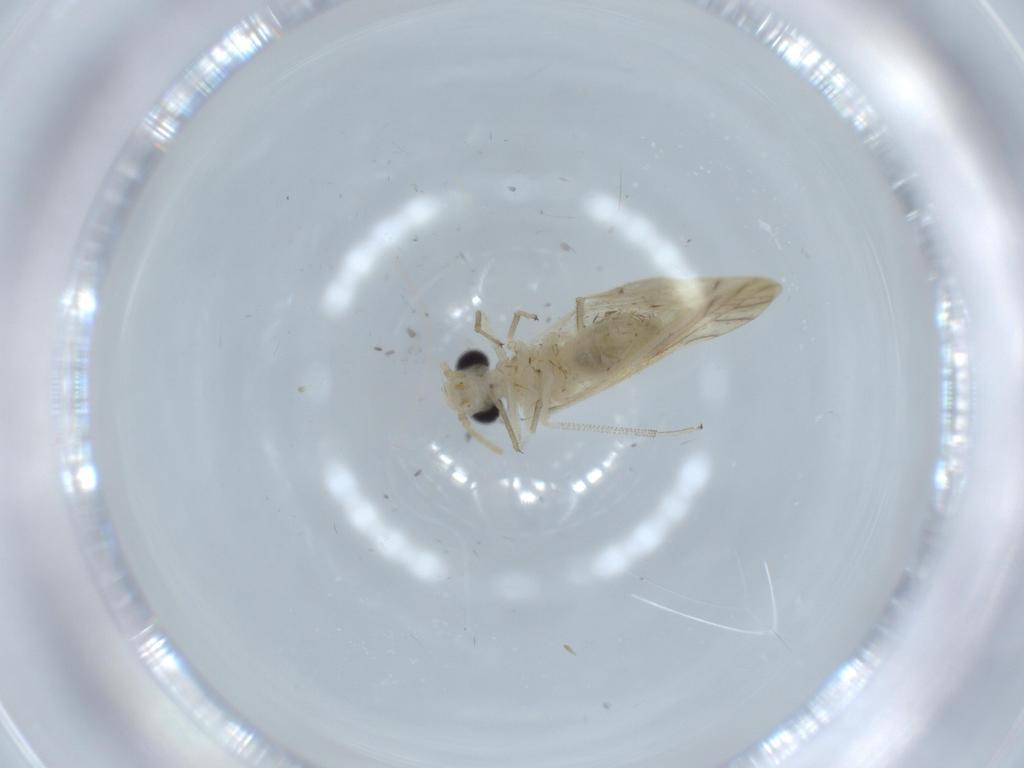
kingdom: Animalia
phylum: Arthropoda
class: Insecta
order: Psocodea
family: Caeciliusidae
